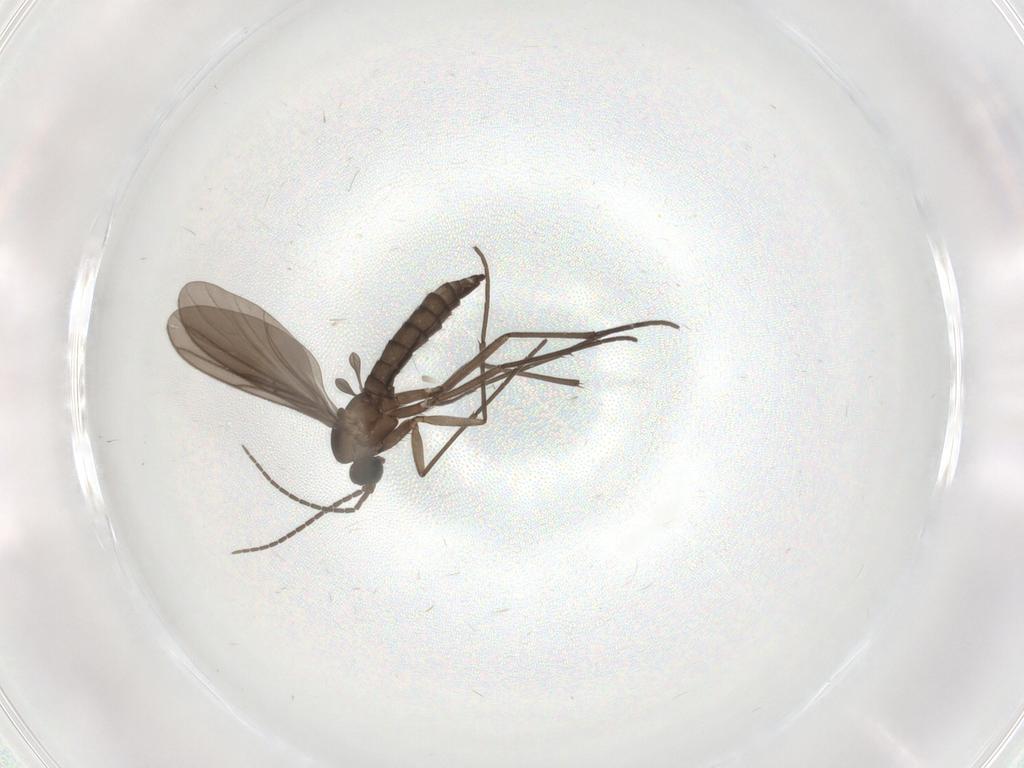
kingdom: Animalia
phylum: Arthropoda
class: Insecta
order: Diptera
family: Sciaridae
